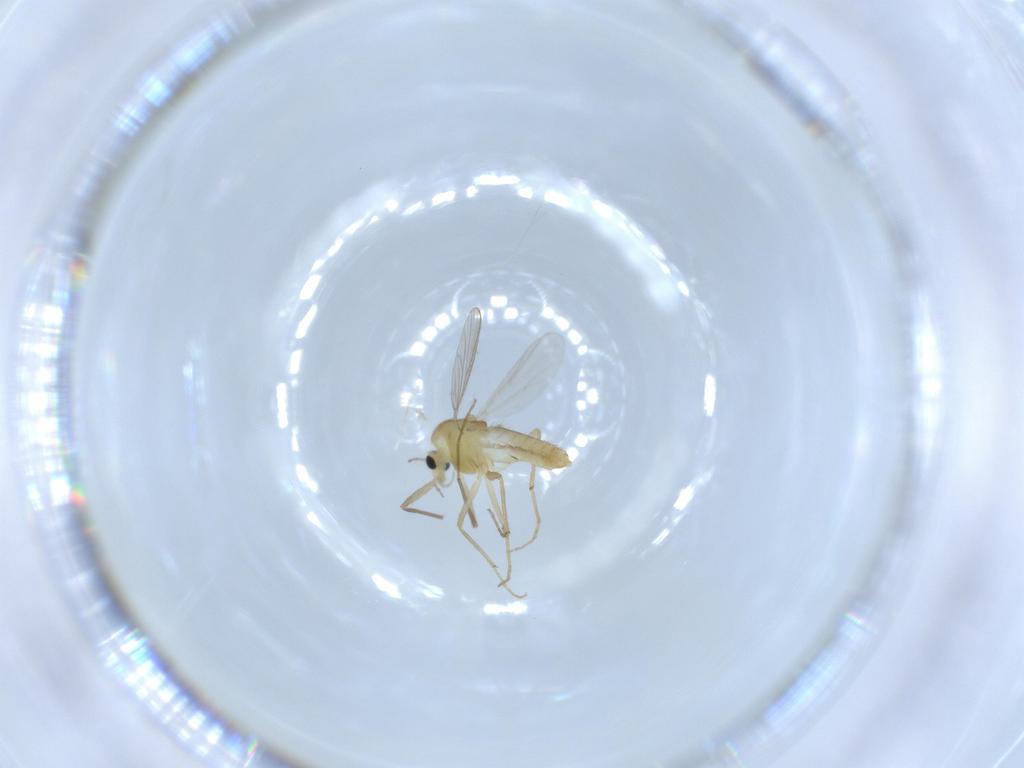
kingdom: Animalia
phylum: Arthropoda
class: Insecta
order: Diptera
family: Chironomidae
